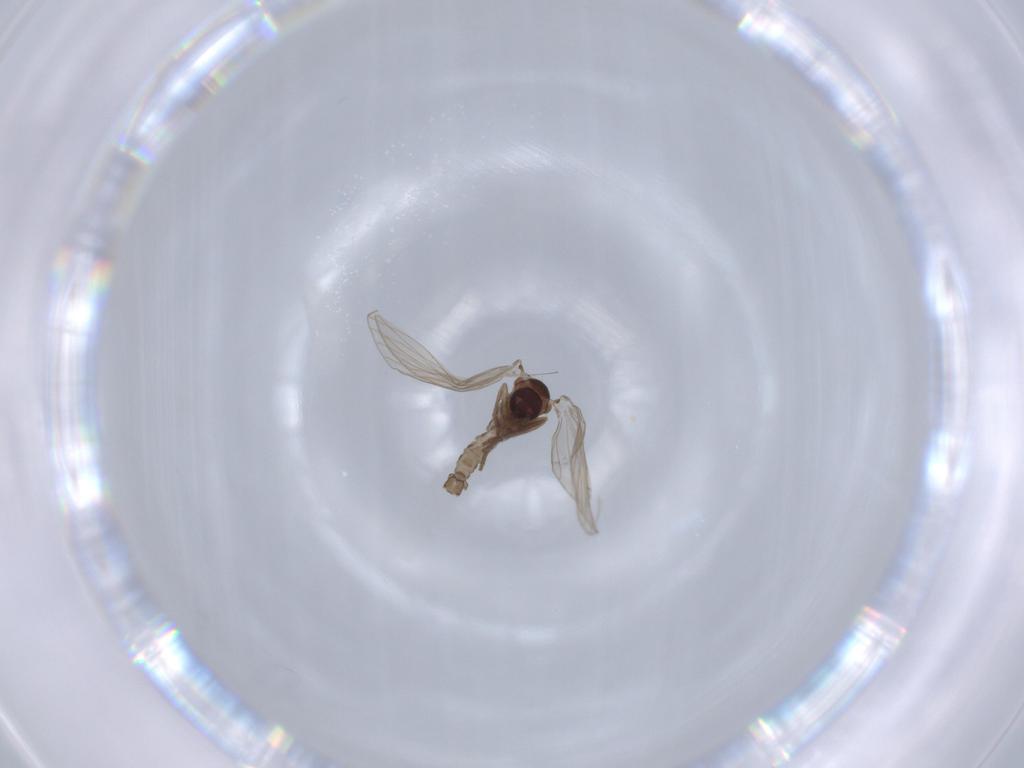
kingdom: Animalia
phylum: Arthropoda
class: Insecta
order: Diptera
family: Psychodidae
